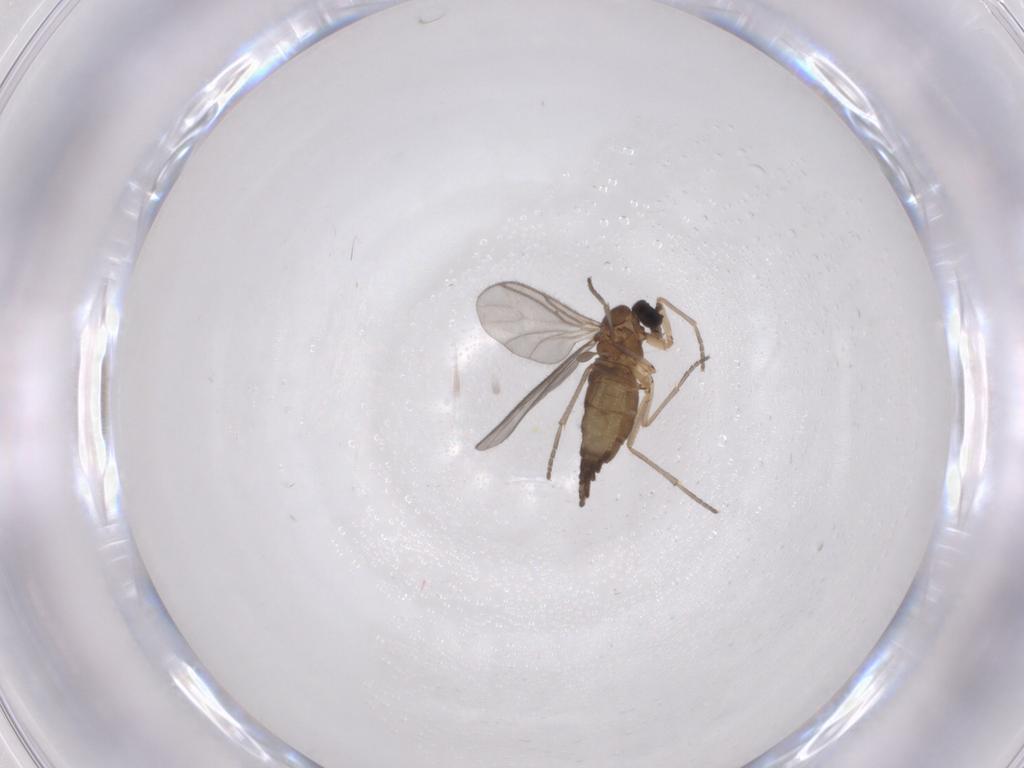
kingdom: Animalia
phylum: Arthropoda
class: Insecta
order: Diptera
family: Sciaridae
